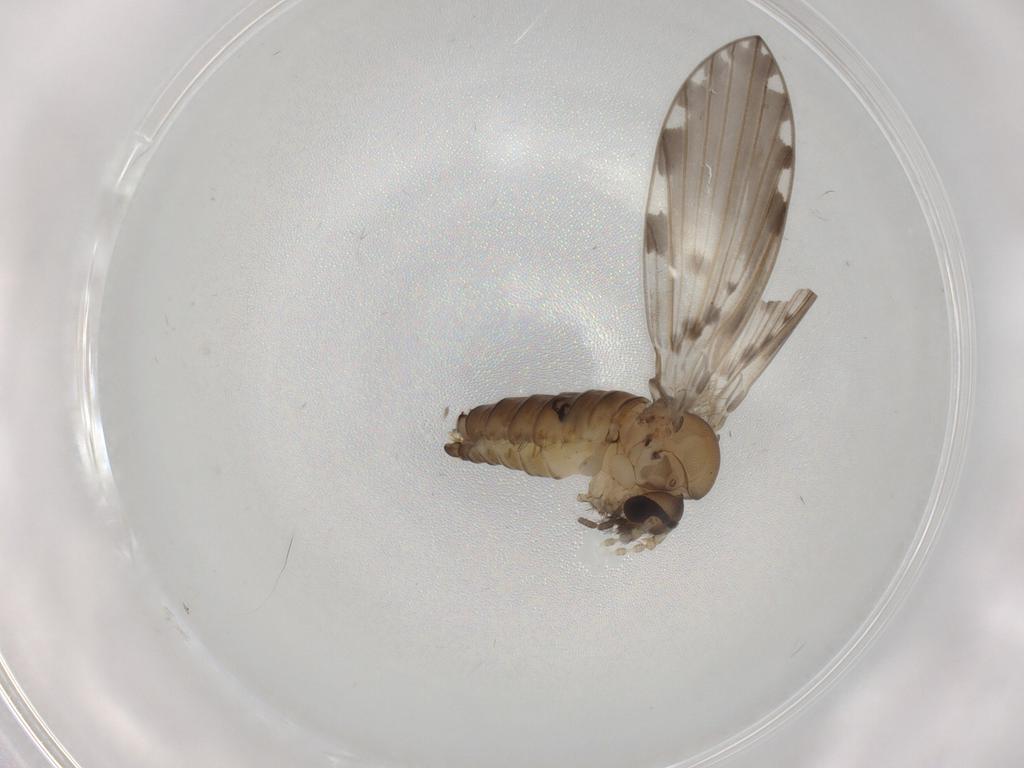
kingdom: Animalia
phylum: Arthropoda
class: Insecta
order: Diptera
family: Psychodidae
